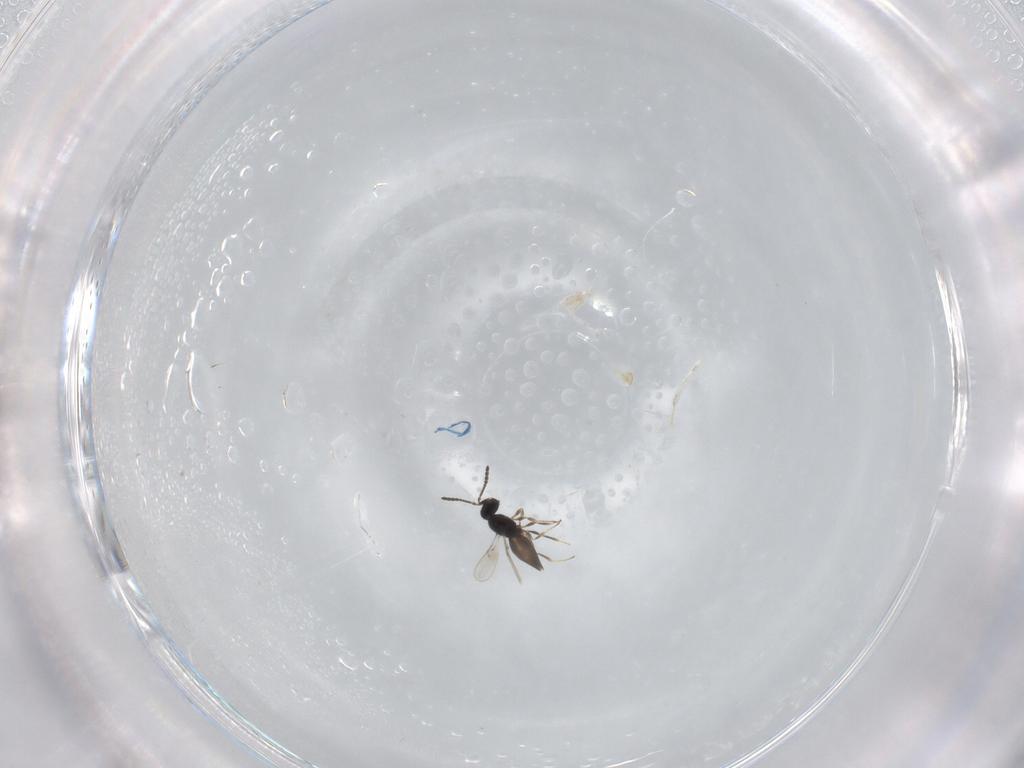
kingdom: Animalia
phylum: Arthropoda
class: Insecta
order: Hymenoptera
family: Scelionidae
